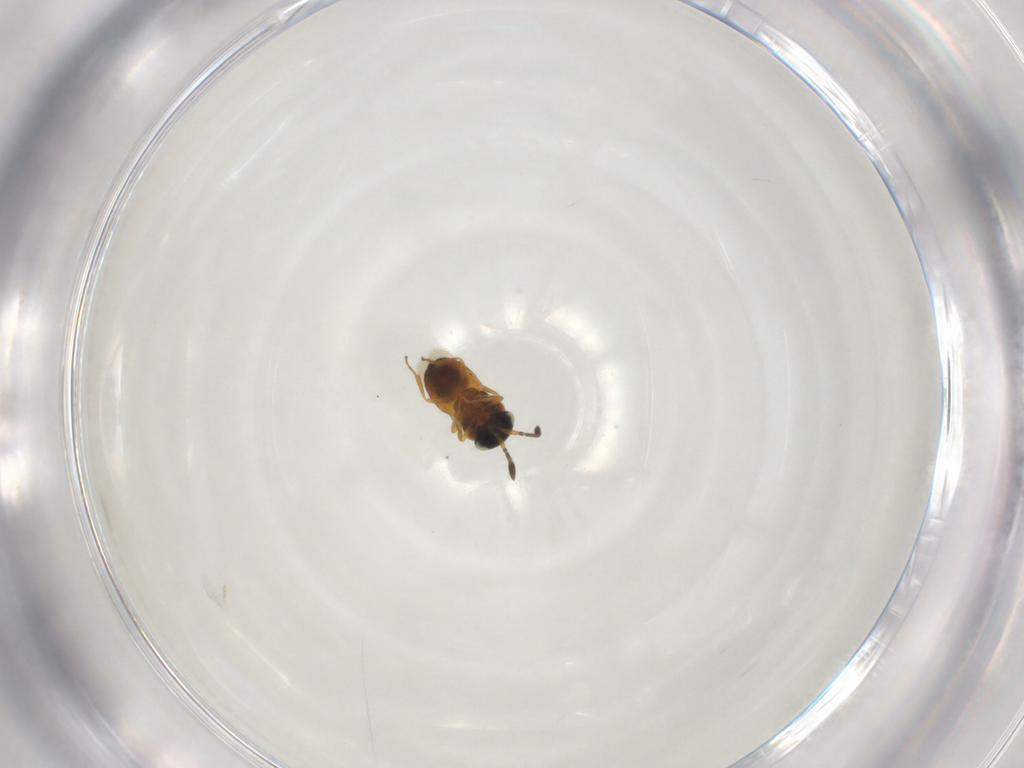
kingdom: Animalia
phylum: Arthropoda
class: Insecta
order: Hymenoptera
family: Scelionidae
